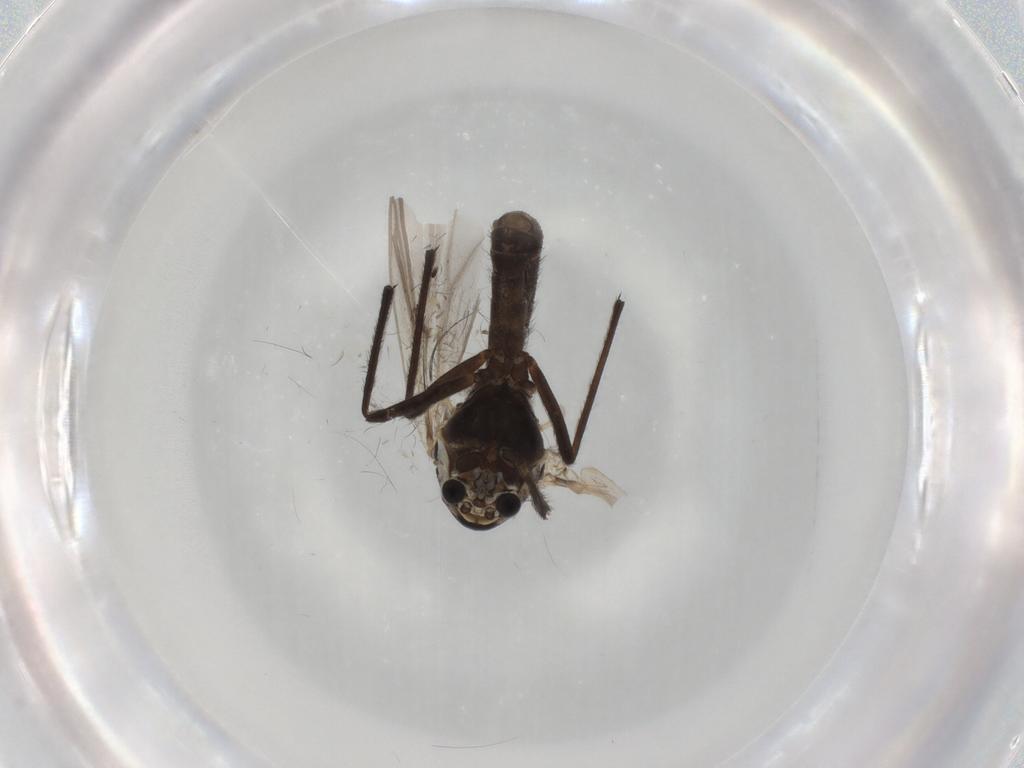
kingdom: Animalia
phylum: Arthropoda
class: Insecta
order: Diptera
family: Chironomidae
